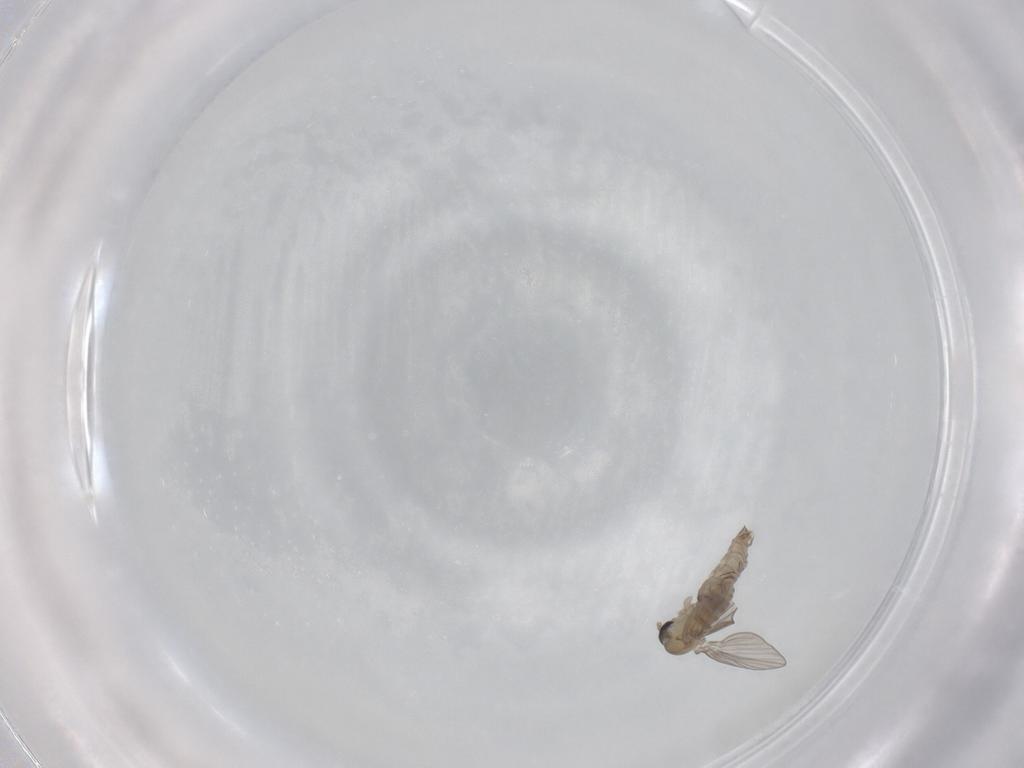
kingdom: Animalia
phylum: Arthropoda
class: Insecta
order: Diptera
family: Psychodidae
